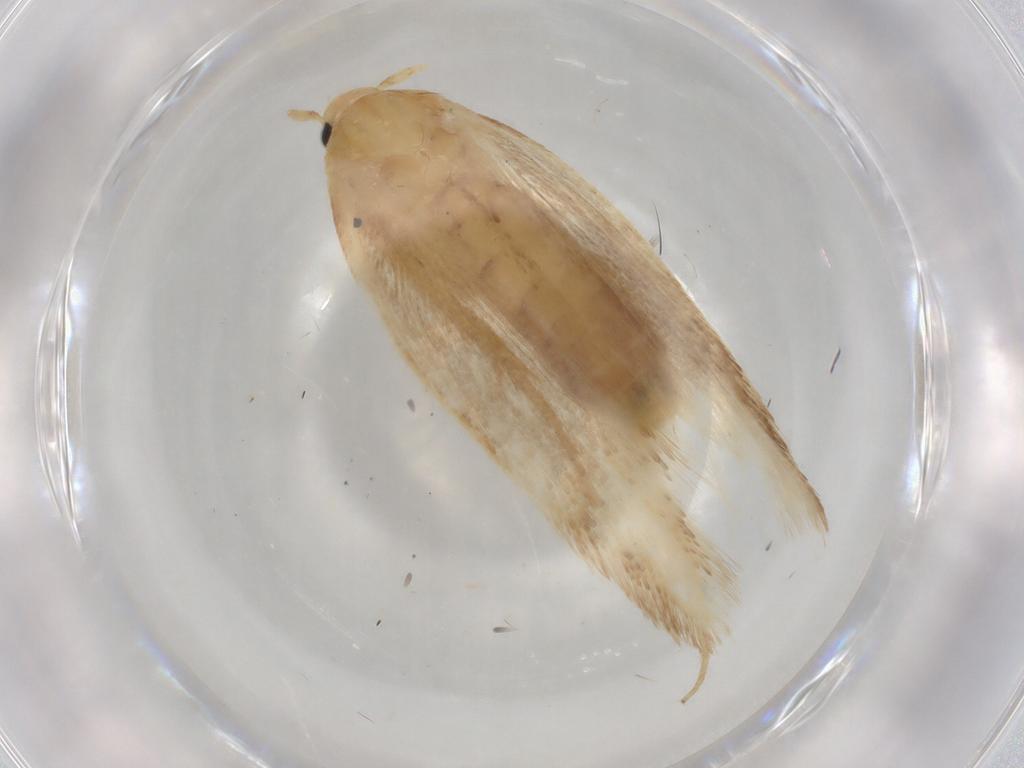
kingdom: Animalia
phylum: Arthropoda
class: Insecta
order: Lepidoptera
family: Geometridae
